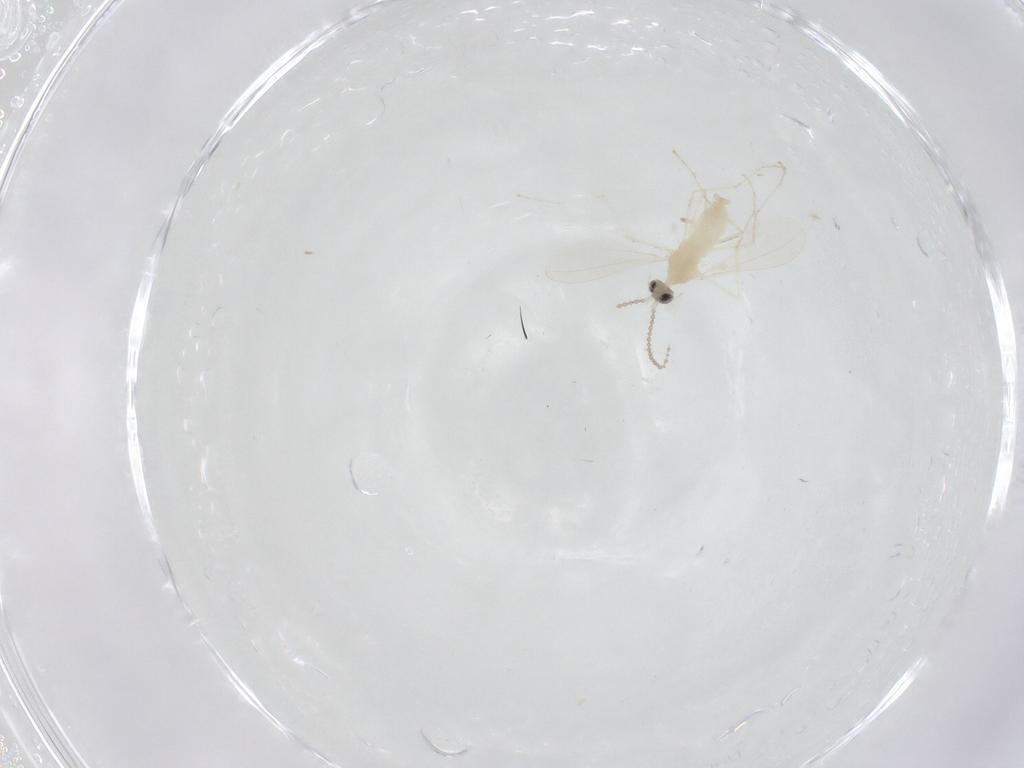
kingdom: Animalia
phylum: Arthropoda
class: Insecta
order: Diptera
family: Cecidomyiidae
